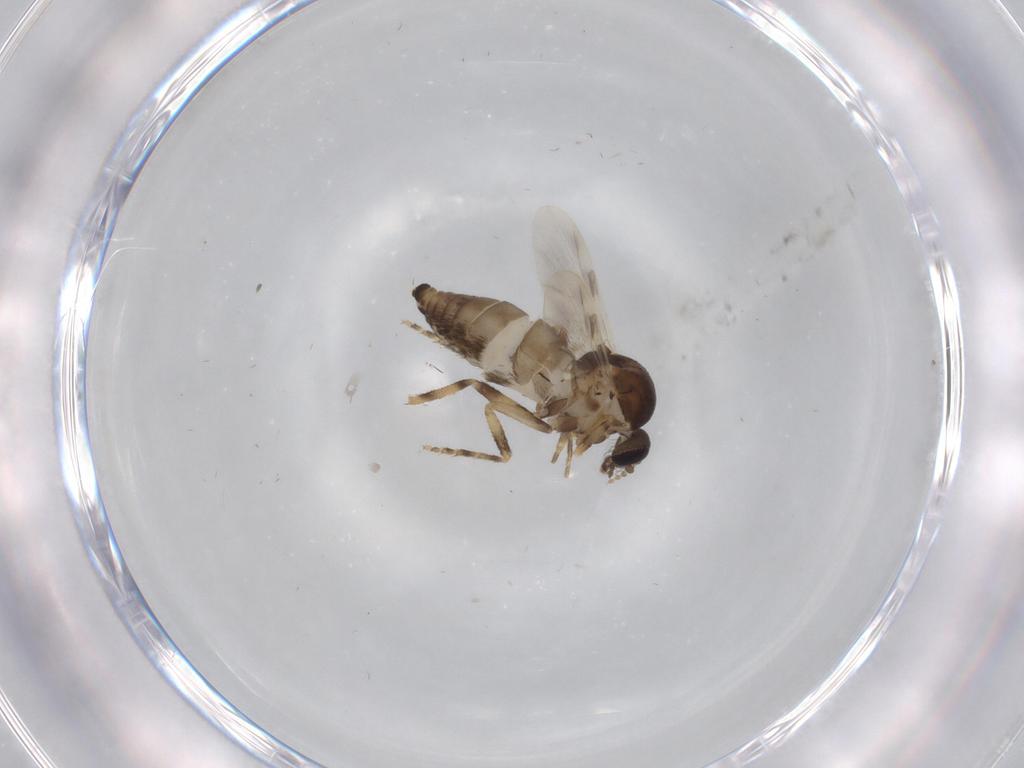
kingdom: Animalia
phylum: Arthropoda
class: Insecta
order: Diptera
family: Ceratopogonidae
